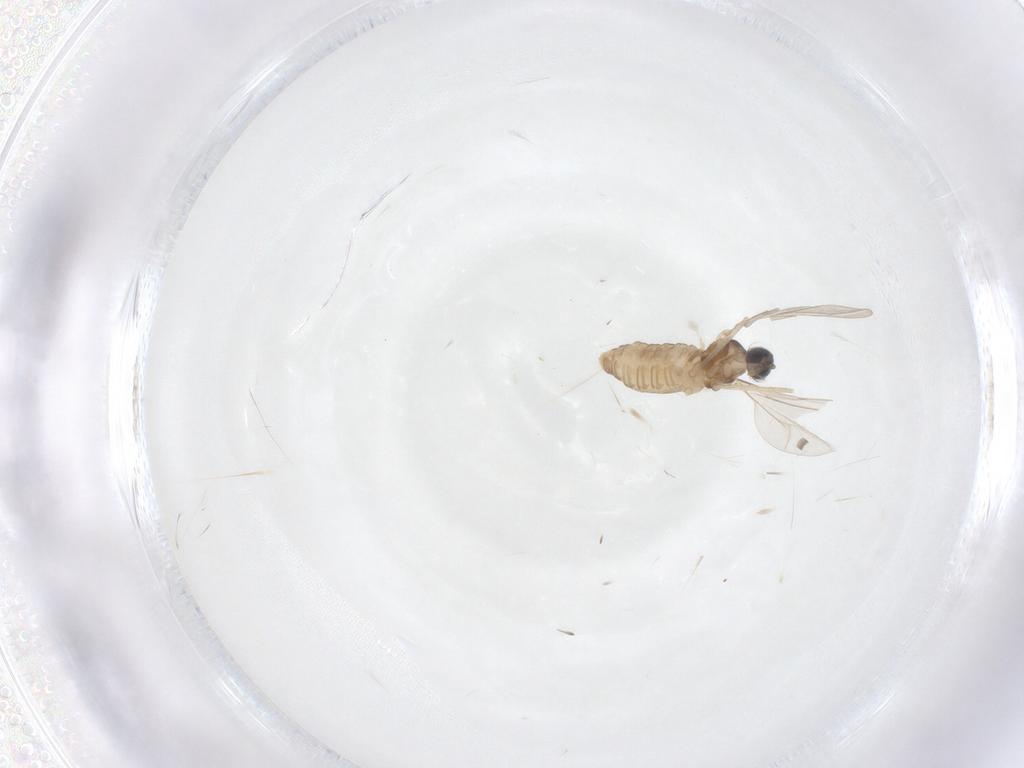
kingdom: Animalia
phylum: Arthropoda
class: Insecta
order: Diptera
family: Cecidomyiidae
